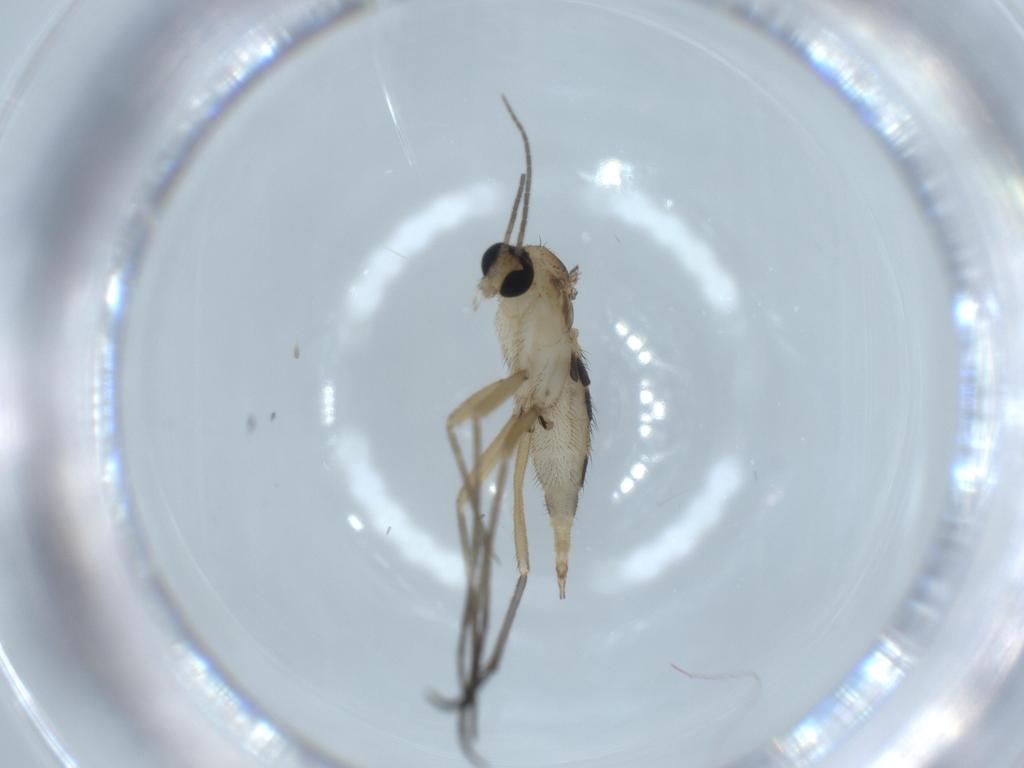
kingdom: Animalia
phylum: Arthropoda
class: Insecta
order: Diptera
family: Sciaridae
